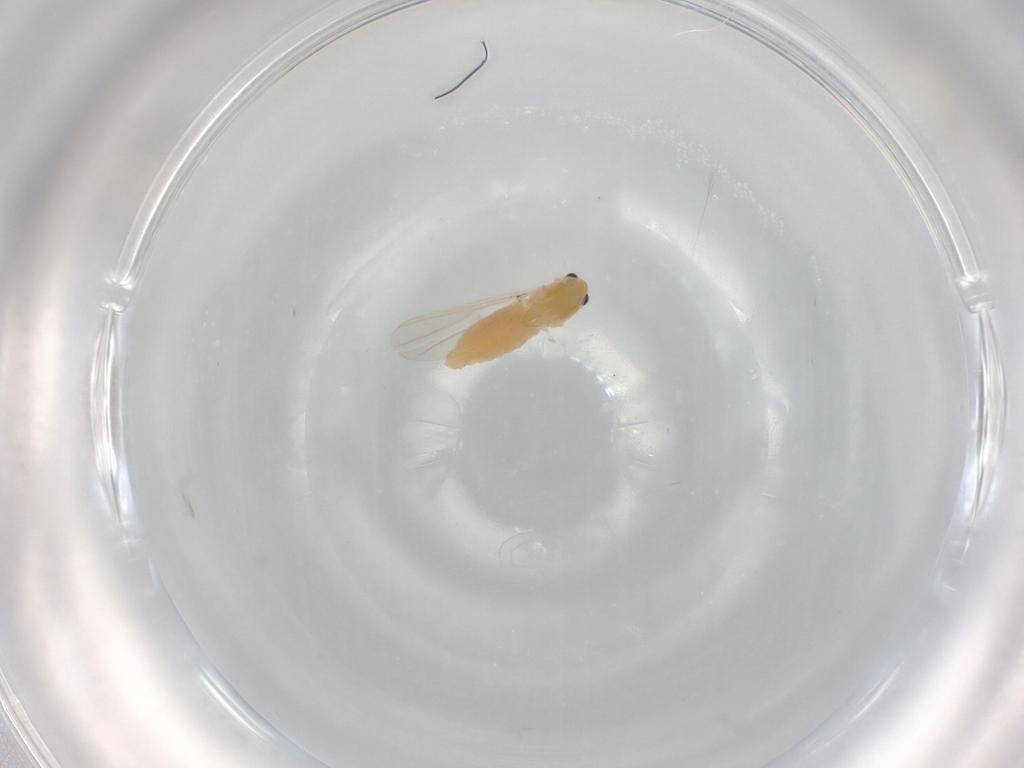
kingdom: Animalia
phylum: Arthropoda
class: Insecta
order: Diptera
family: Chironomidae
